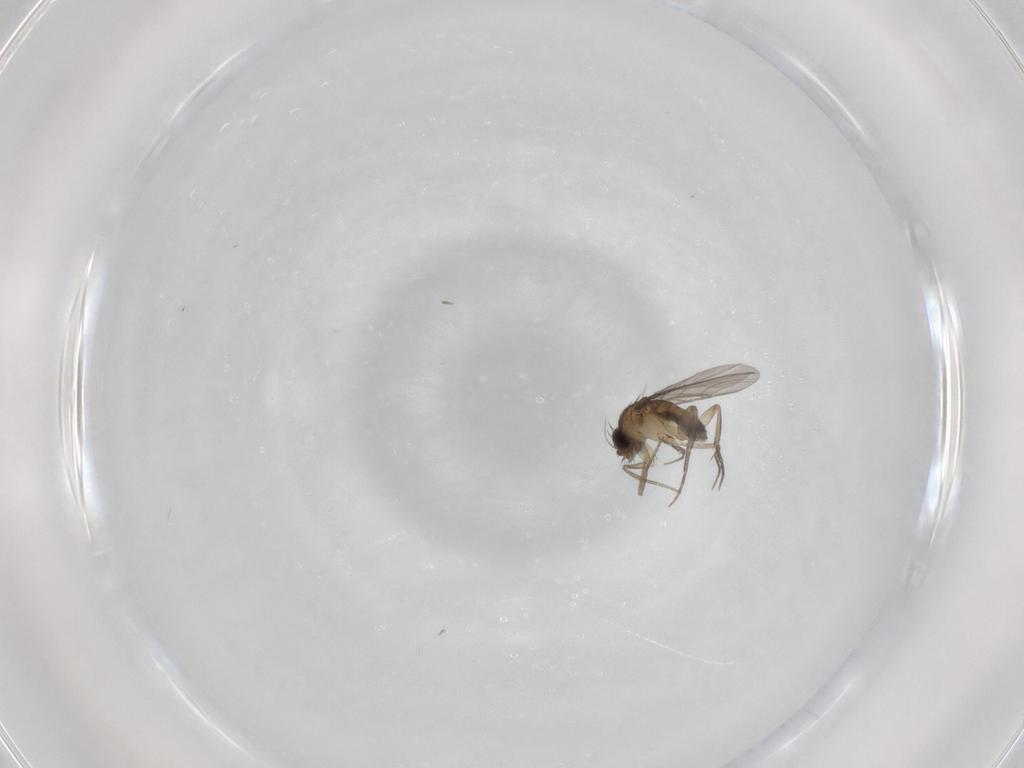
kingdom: Animalia
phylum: Arthropoda
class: Insecta
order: Diptera
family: Phoridae
